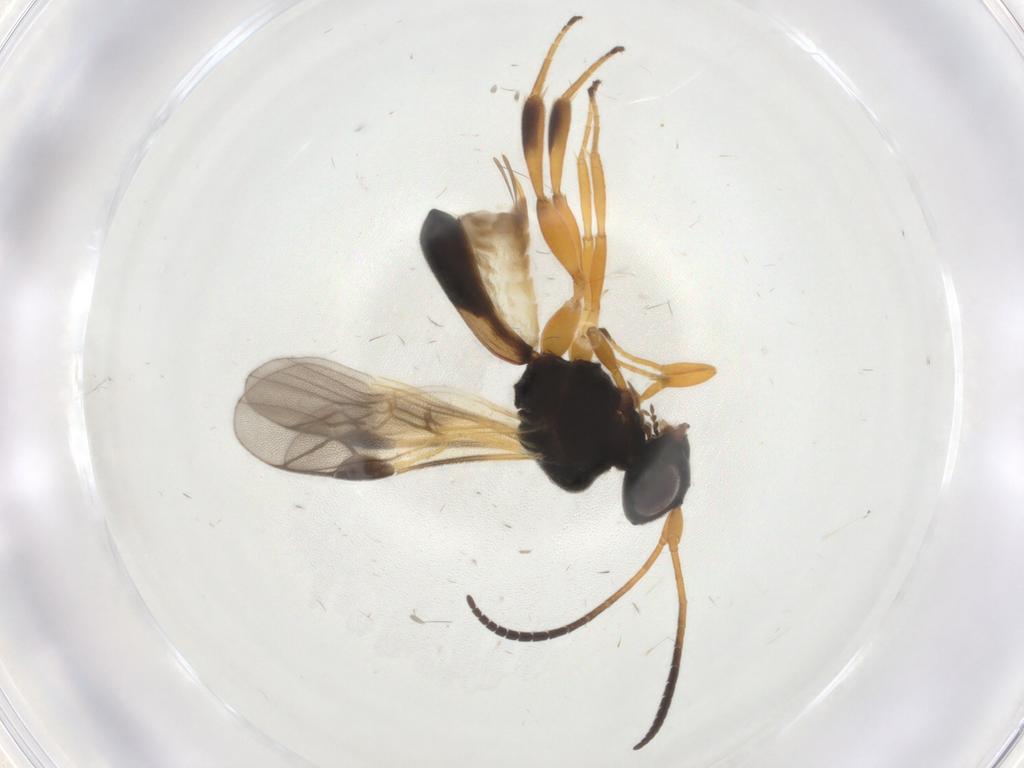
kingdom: Animalia
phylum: Arthropoda
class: Insecta
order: Hymenoptera
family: Braconidae
